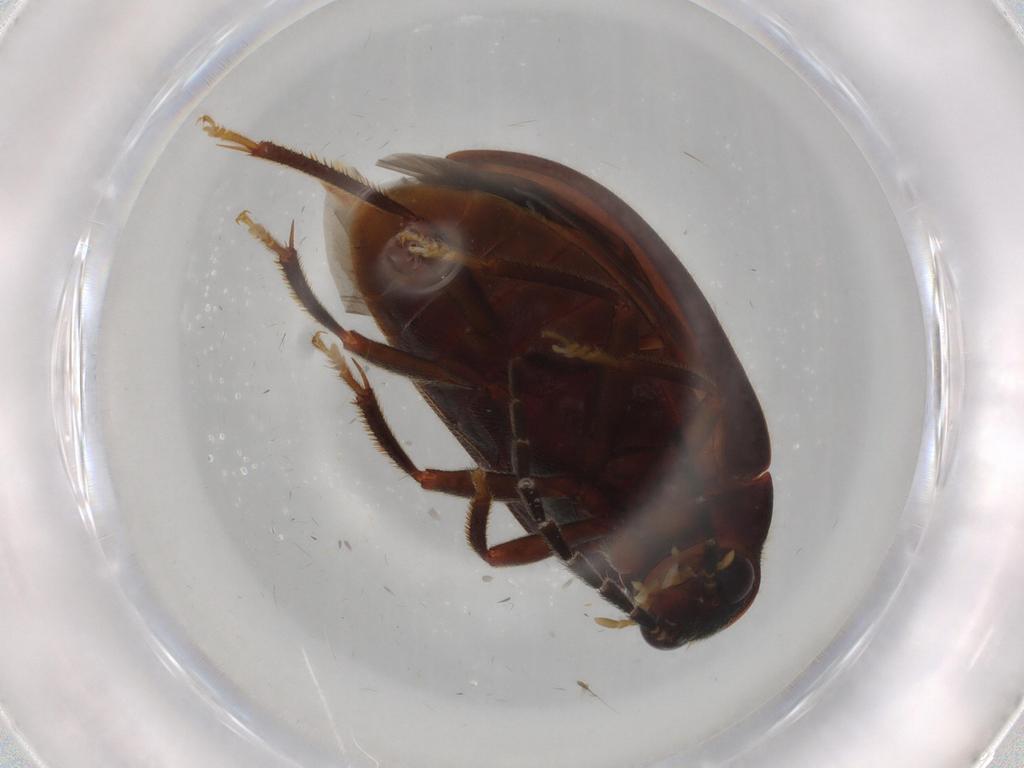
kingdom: Animalia
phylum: Arthropoda
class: Insecta
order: Coleoptera
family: Ptilodactylidae
